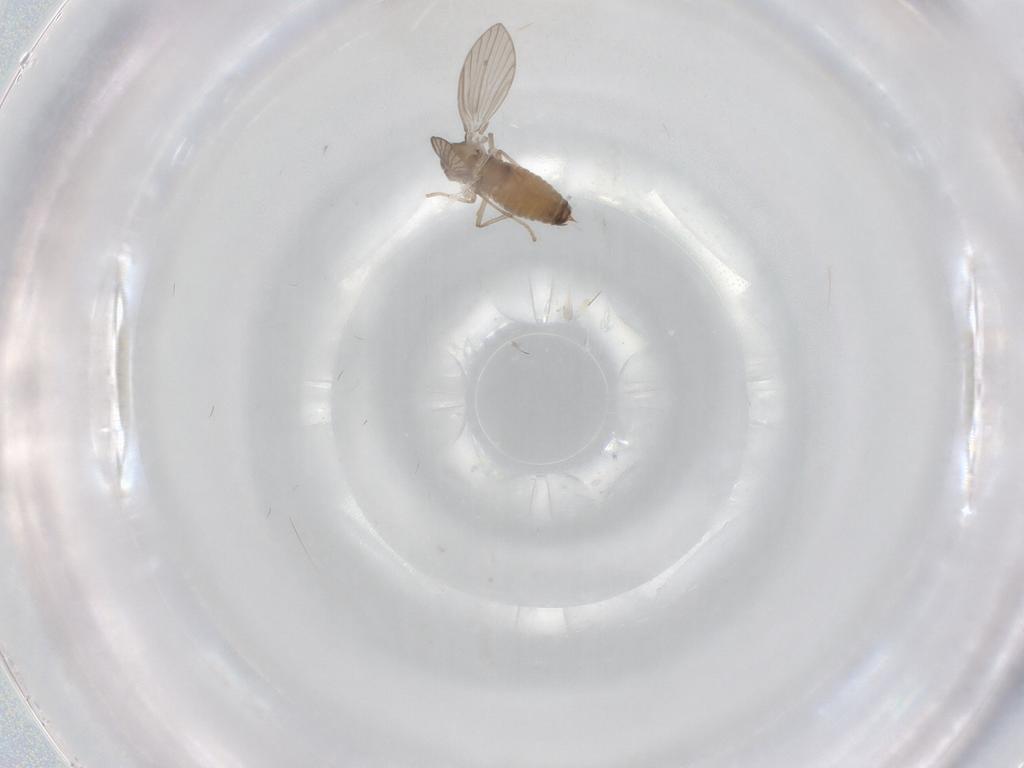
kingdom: Animalia
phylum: Arthropoda
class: Insecta
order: Diptera
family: Psychodidae
